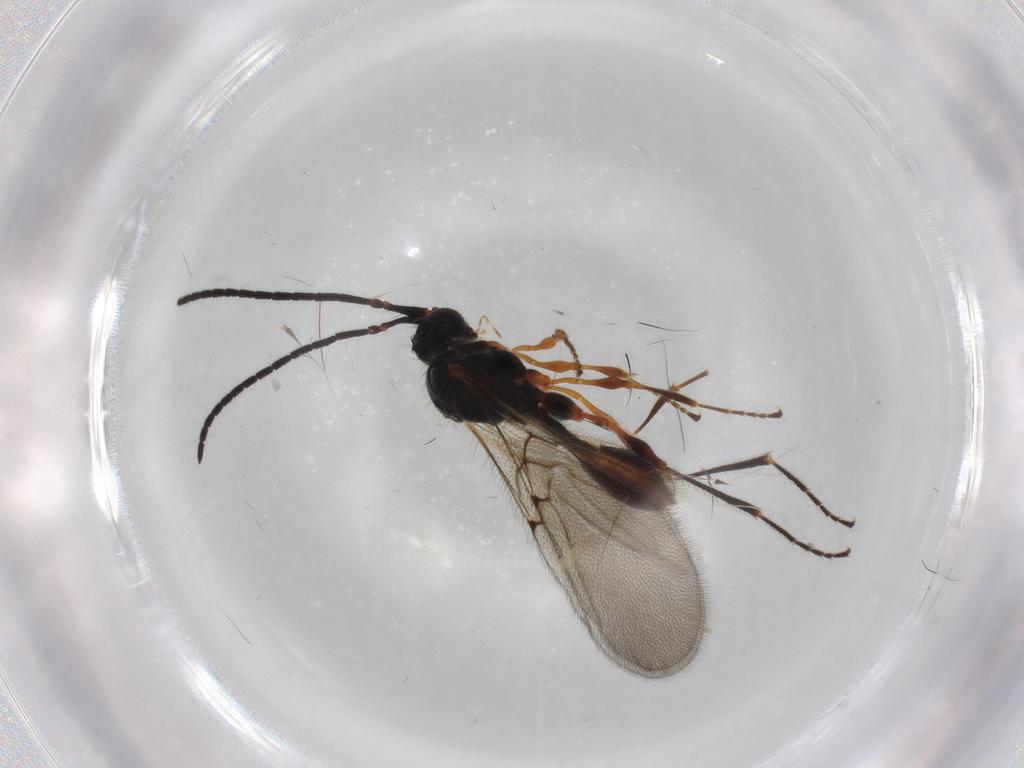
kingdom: Animalia
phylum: Arthropoda
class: Insecta
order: Hymenoptera
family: Diapriidae
